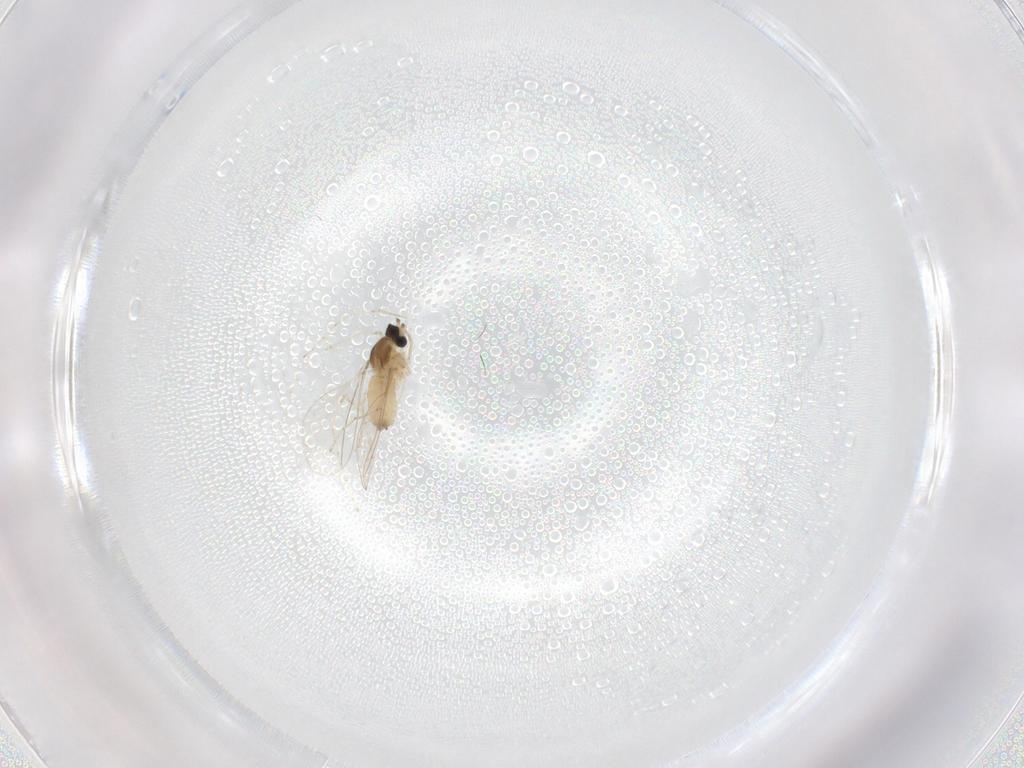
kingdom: Animalia
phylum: Arthropoda
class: Insecta
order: Diptera
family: Cecidomyiidae
